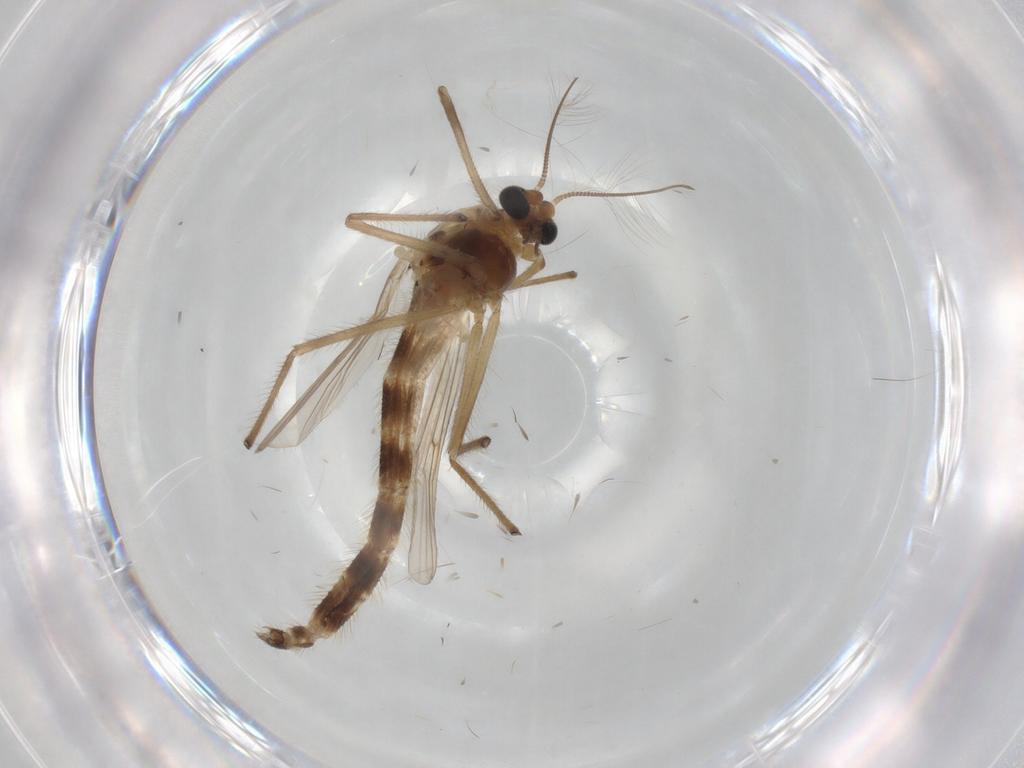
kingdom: Animalia
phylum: Arthropoda
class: Insecta
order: Diptera
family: Chironomidae
